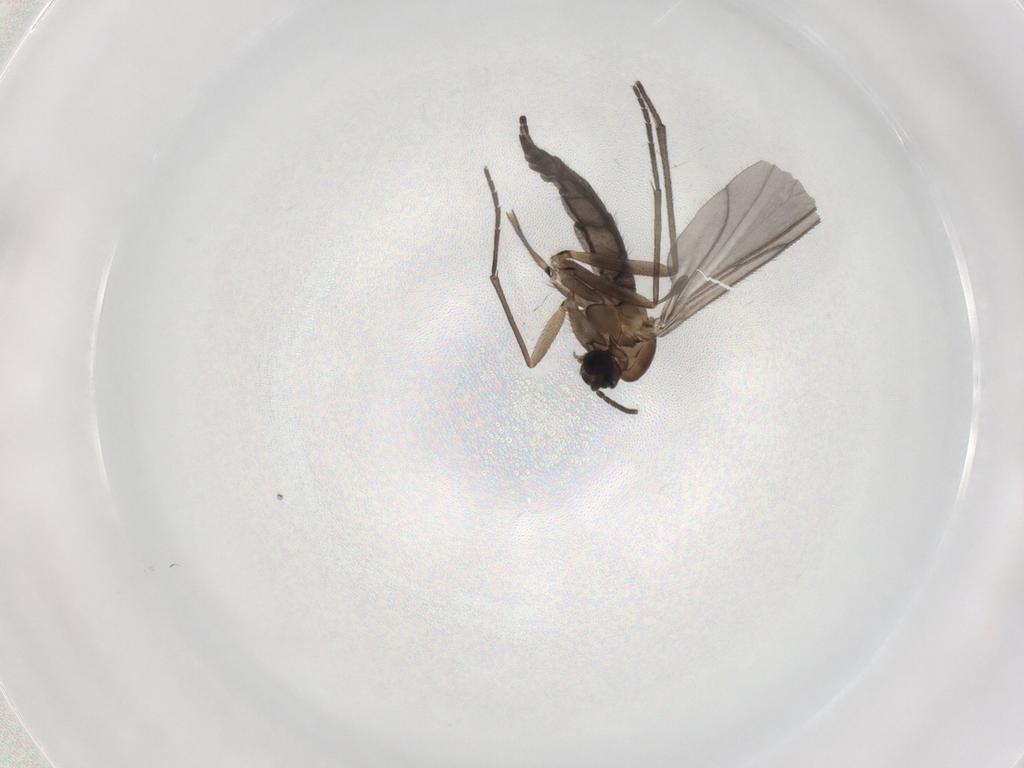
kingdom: Animalia
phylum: Arthropoda
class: Insecta
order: Diptera
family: Sciaridae
